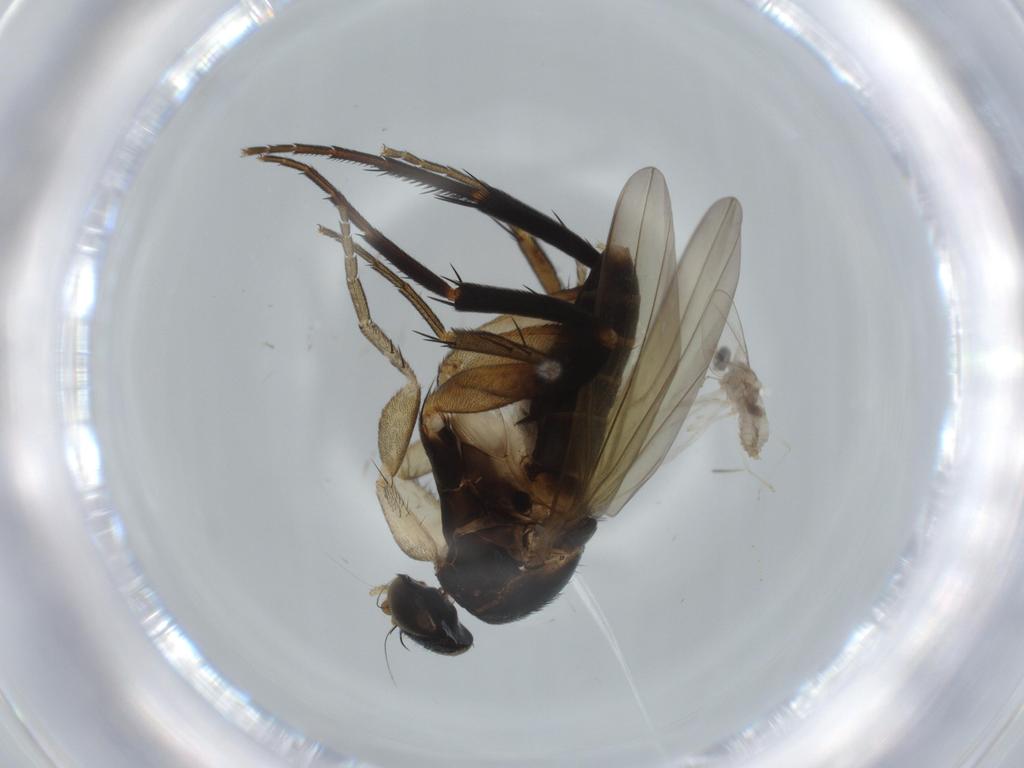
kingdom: Animalia
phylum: Arthropoda
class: Insecta
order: Diptera
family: Phoridae
